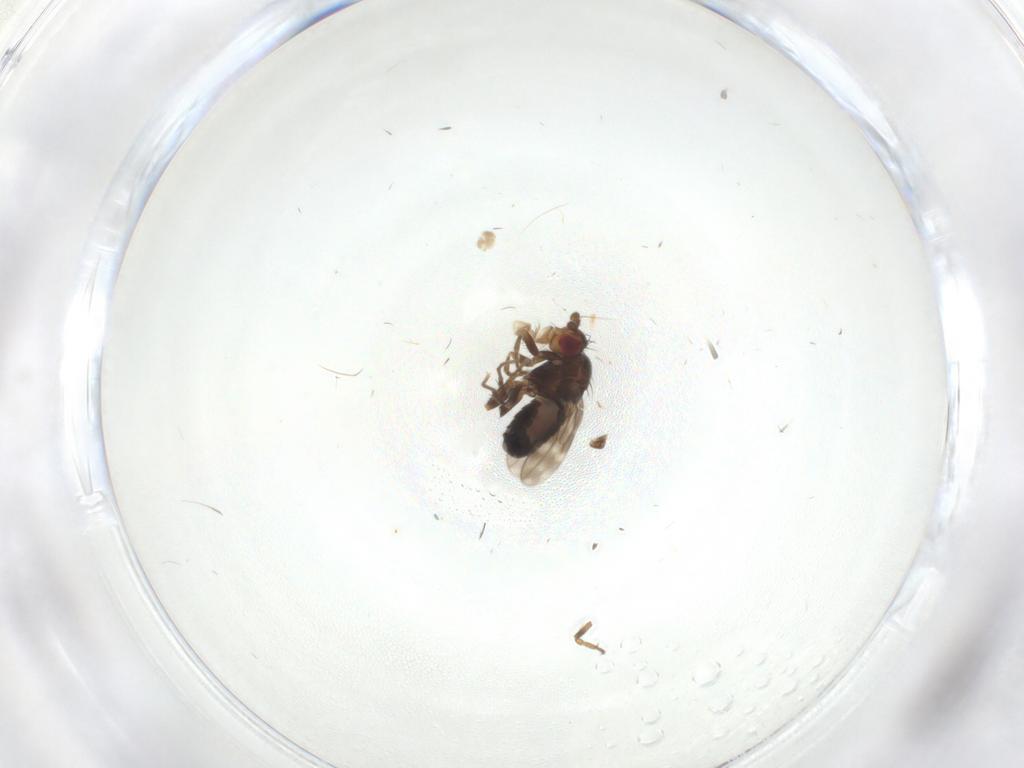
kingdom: Animalia
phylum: Arthropoda
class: Insecta
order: Diptera
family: Sphaeroceridae
